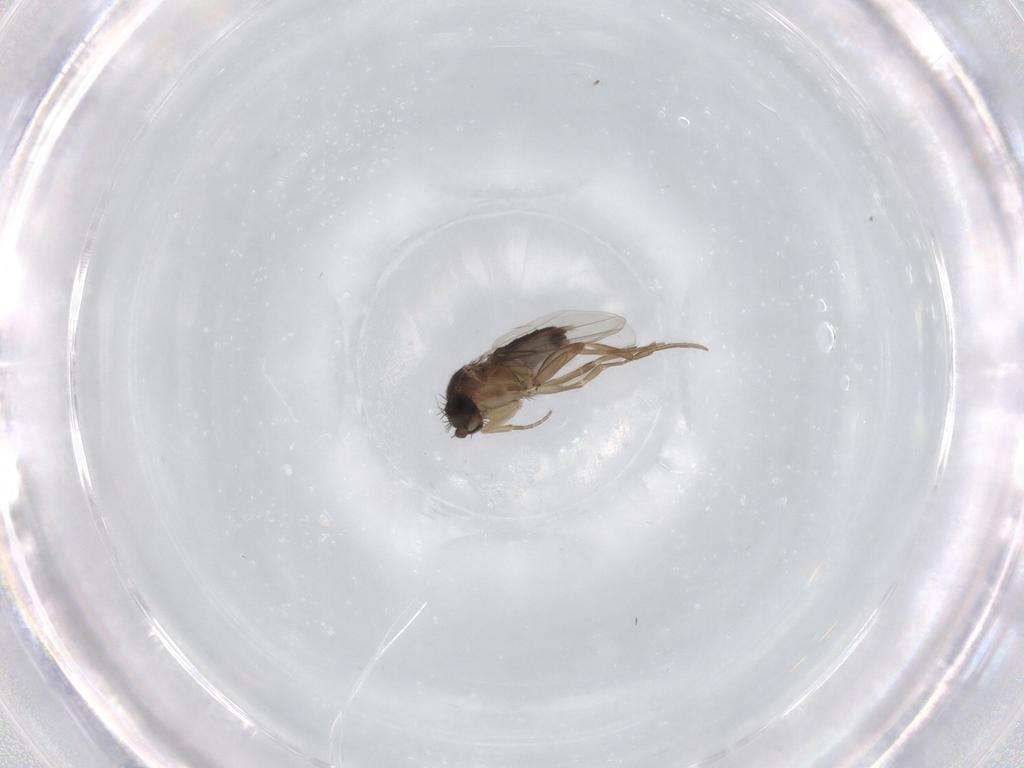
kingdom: Animalia
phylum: Arthropoda
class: Insecta
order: Diptera
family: Phoridae
